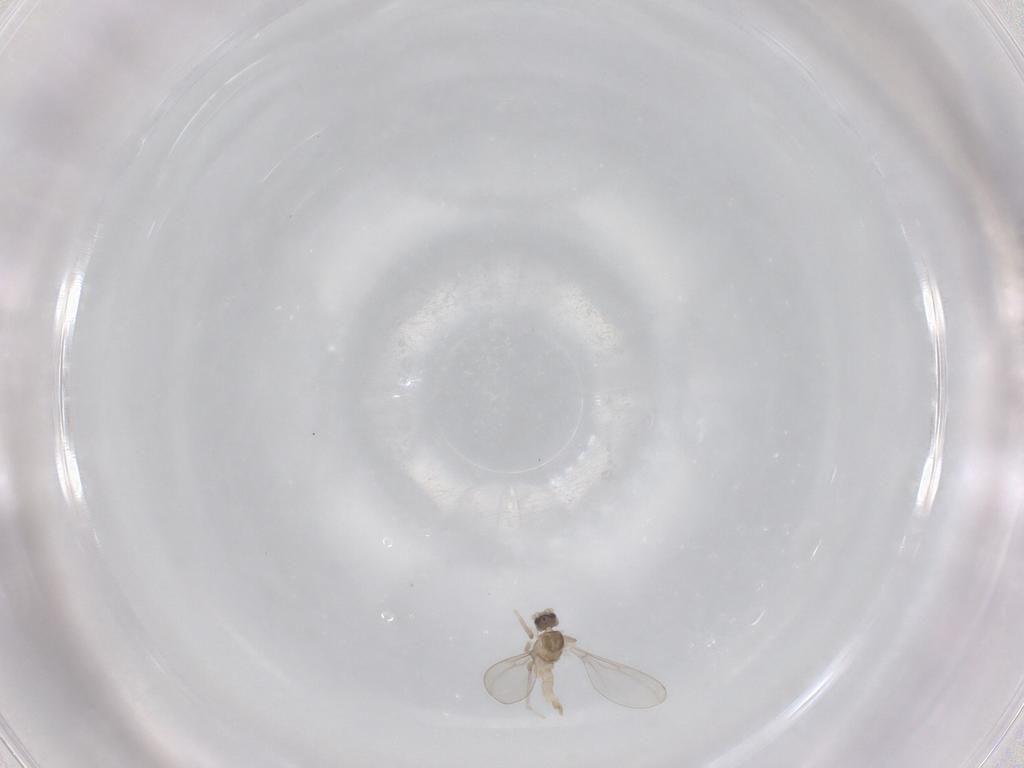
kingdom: Animalia
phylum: Arthropoda
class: Insecta
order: Diptera
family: Cecidomyiidae
